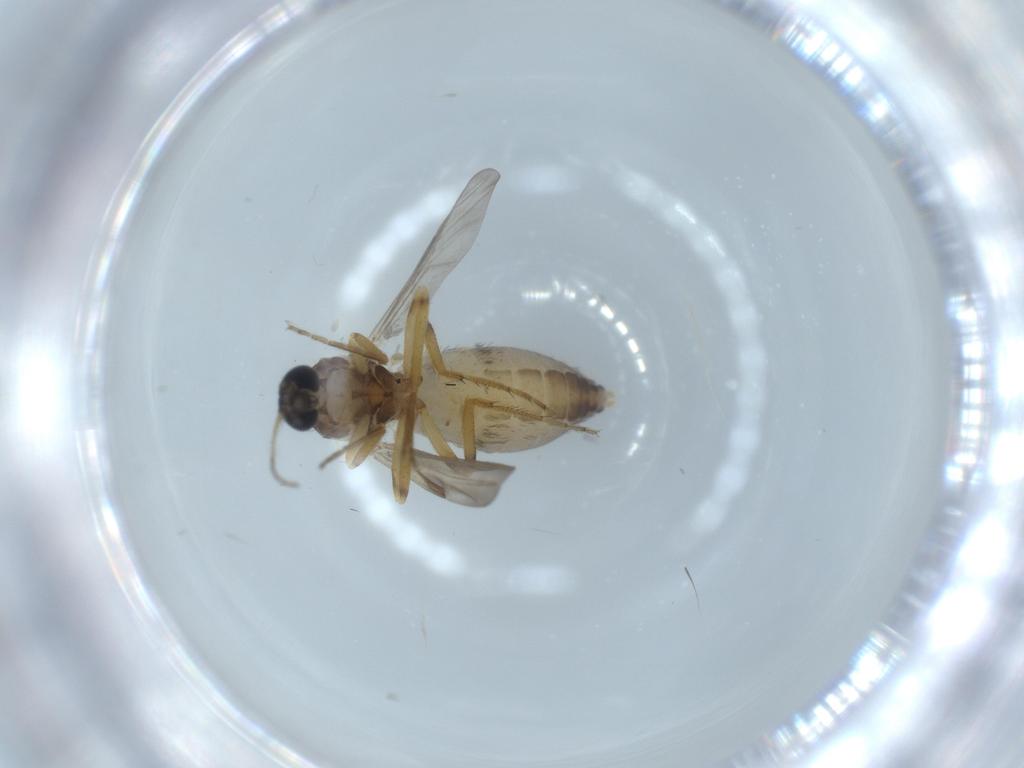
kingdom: Animalia
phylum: Arthropoda
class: Insecta
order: Diptera
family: Ceratopogonidae
